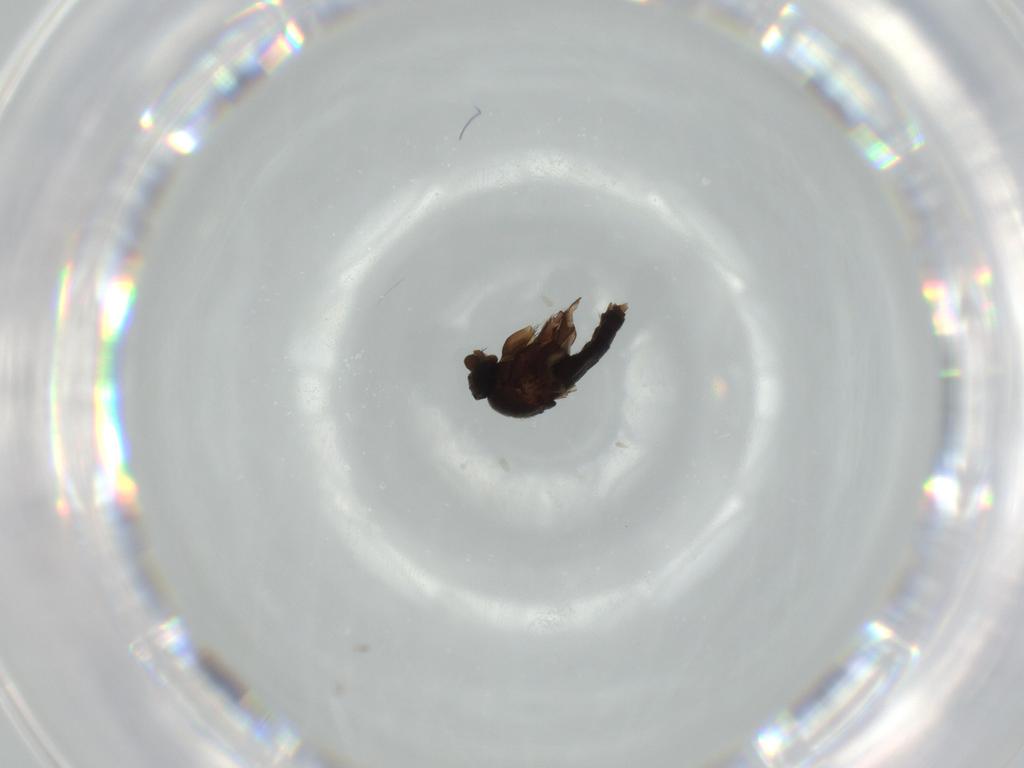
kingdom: Animalia
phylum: Arthropoda
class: Insecta
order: Diptera
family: Phoridae
